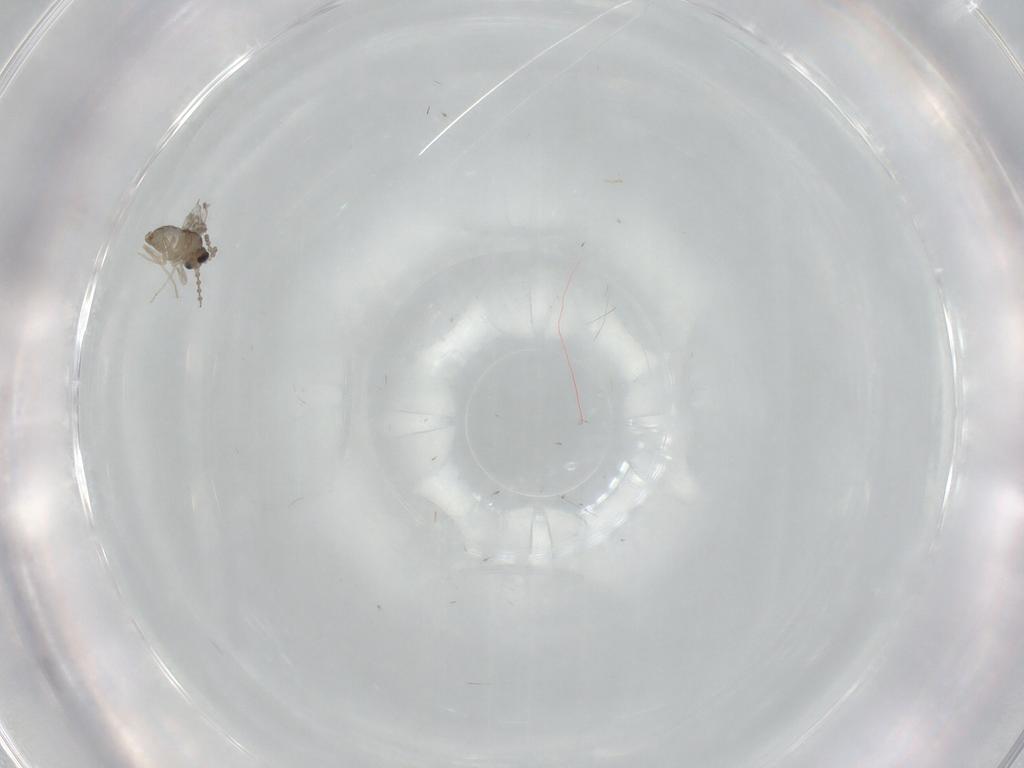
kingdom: Animalia
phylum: Arthropoda
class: Insecta
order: Diptera
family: Cecidomyiidae
